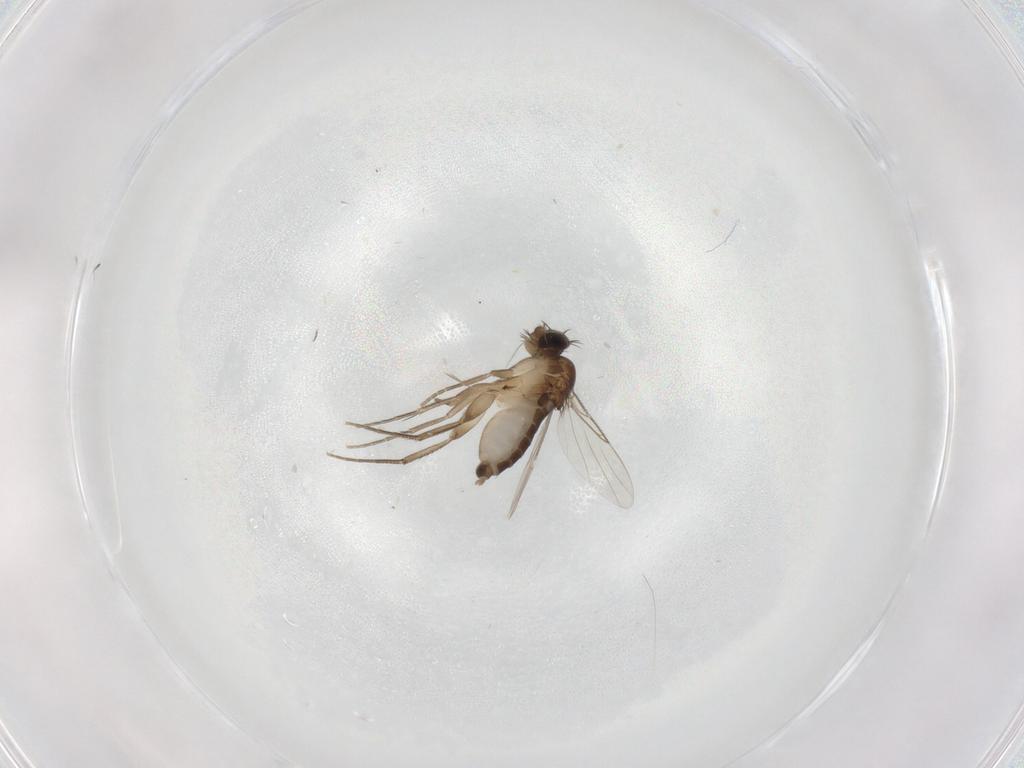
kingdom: Animalia
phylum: Arthropoda
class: Insecta
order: Diptera
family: Phoridae
